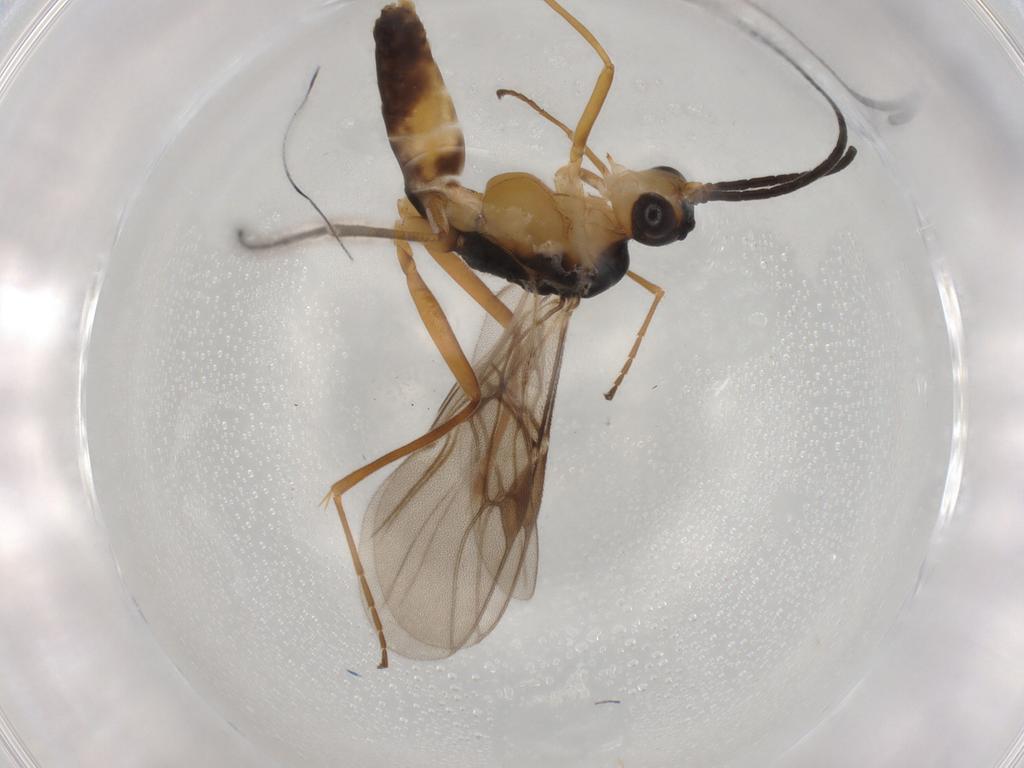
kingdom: Animalia
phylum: Arthropoda
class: Insecta
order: Hymenoptera
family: Braconidae
